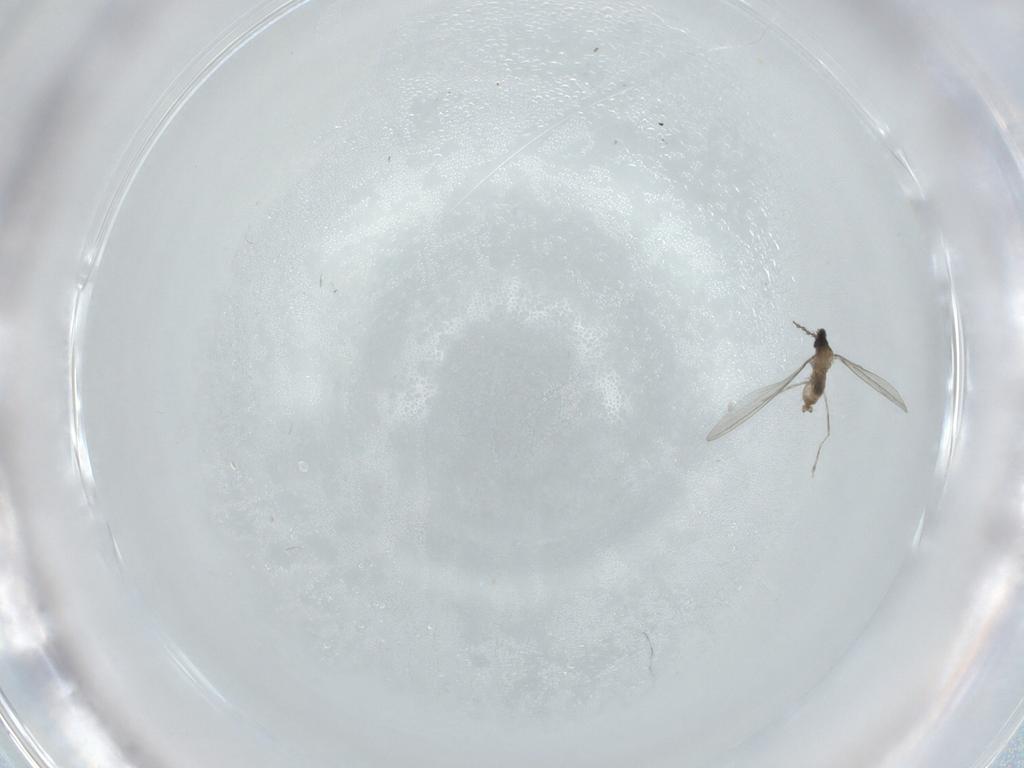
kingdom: Animalia
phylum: Arthropoda
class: Insecta
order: Diptera
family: Cecidomyiidae
